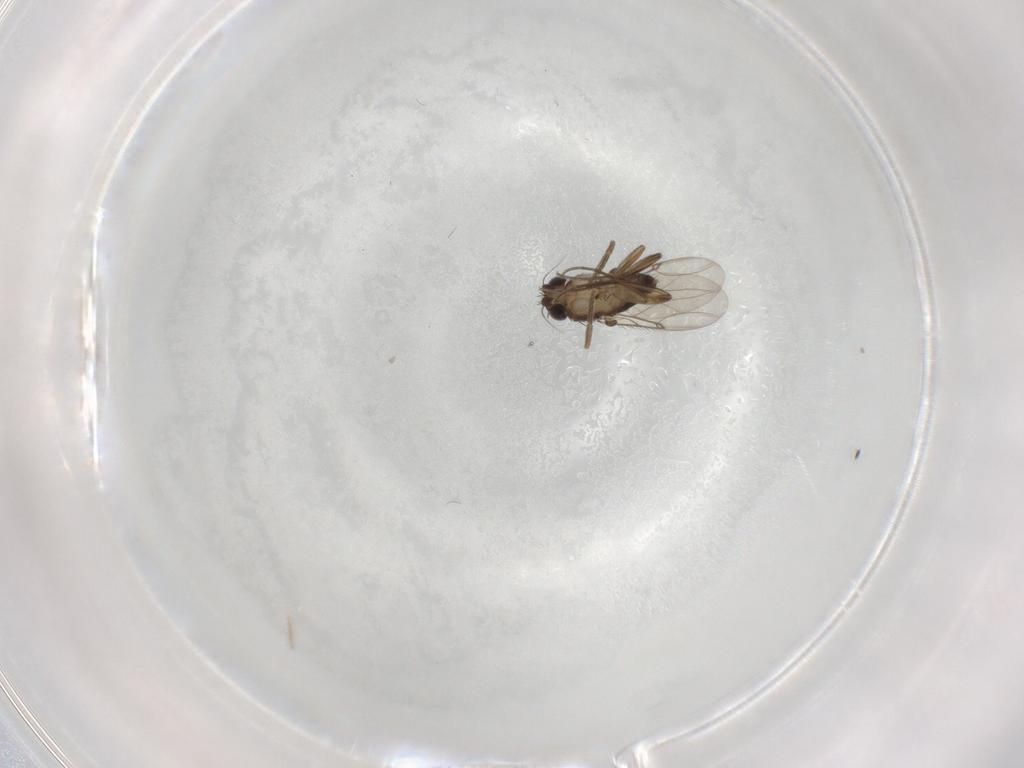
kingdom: Animalia
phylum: Arthropoda
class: Insecta
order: Diptera
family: Phoridae
